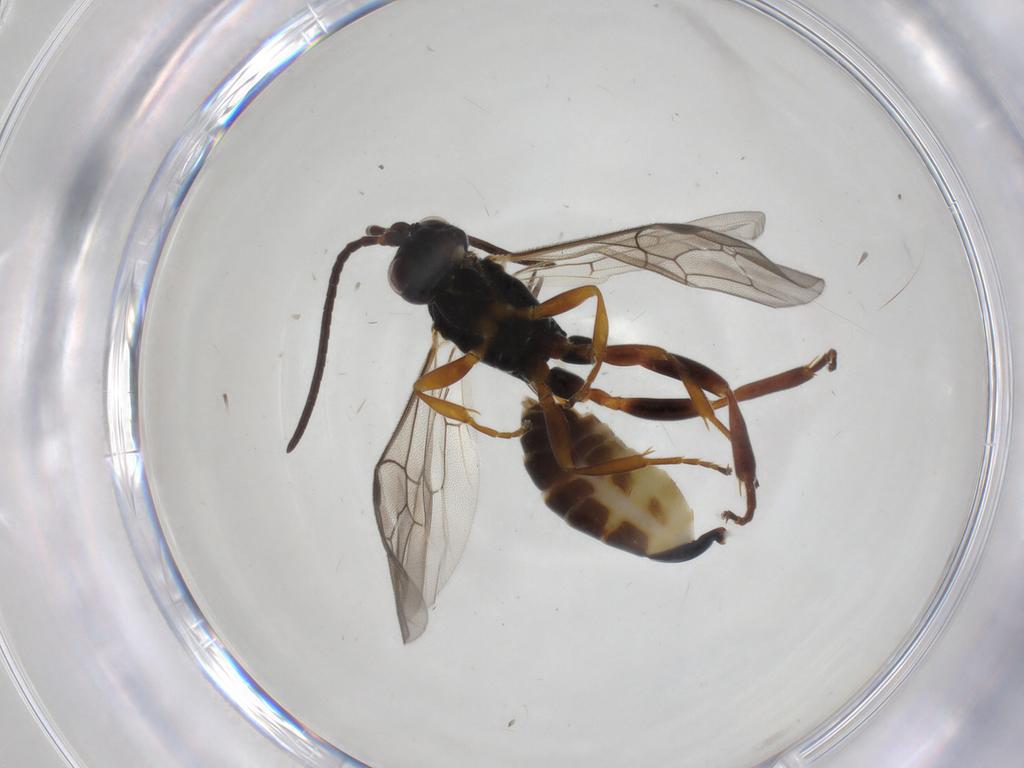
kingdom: Animalia
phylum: Arthropoda
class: Insecta
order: Hymenoptera
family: Ichneumonidae
